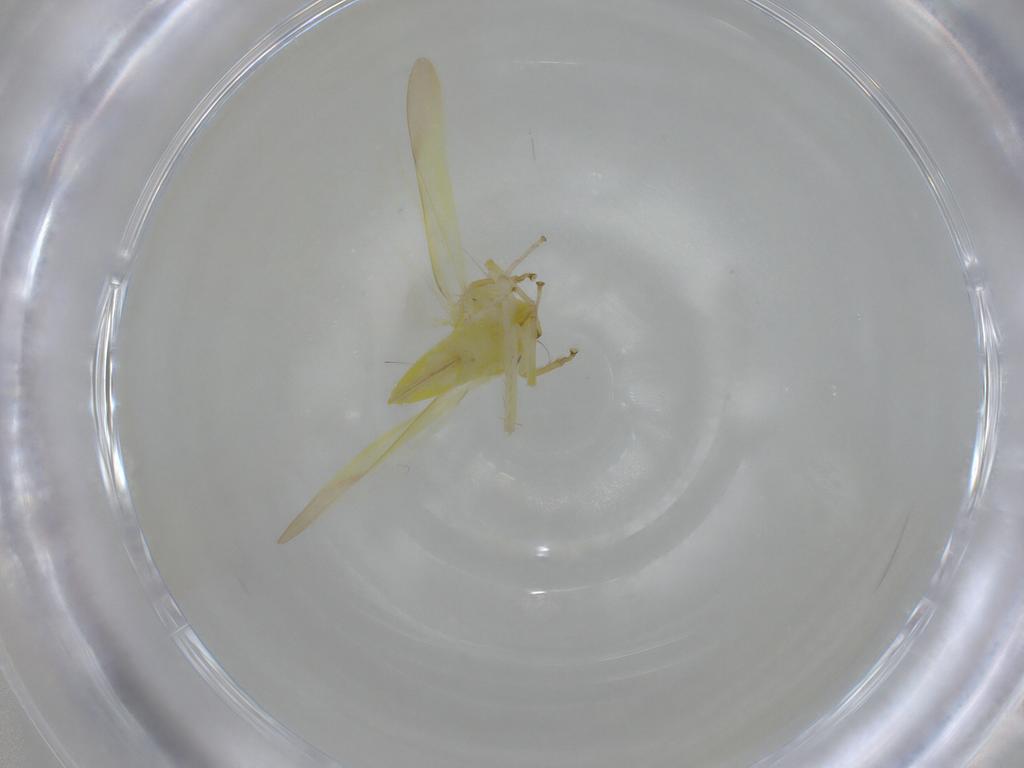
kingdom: Animalia
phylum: Arthropoda
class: Insecta
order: Hemiptera
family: Cicadellidae
